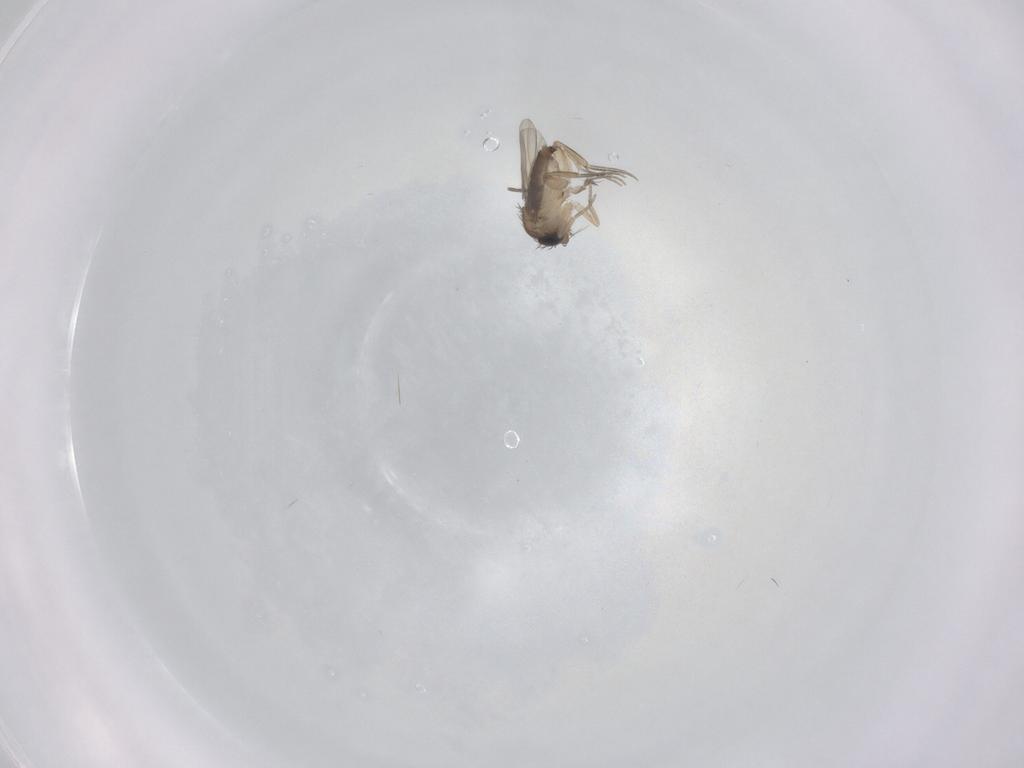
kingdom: Animalia
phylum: Arthropoda
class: Insecta
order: Diptera
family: Phoridae
